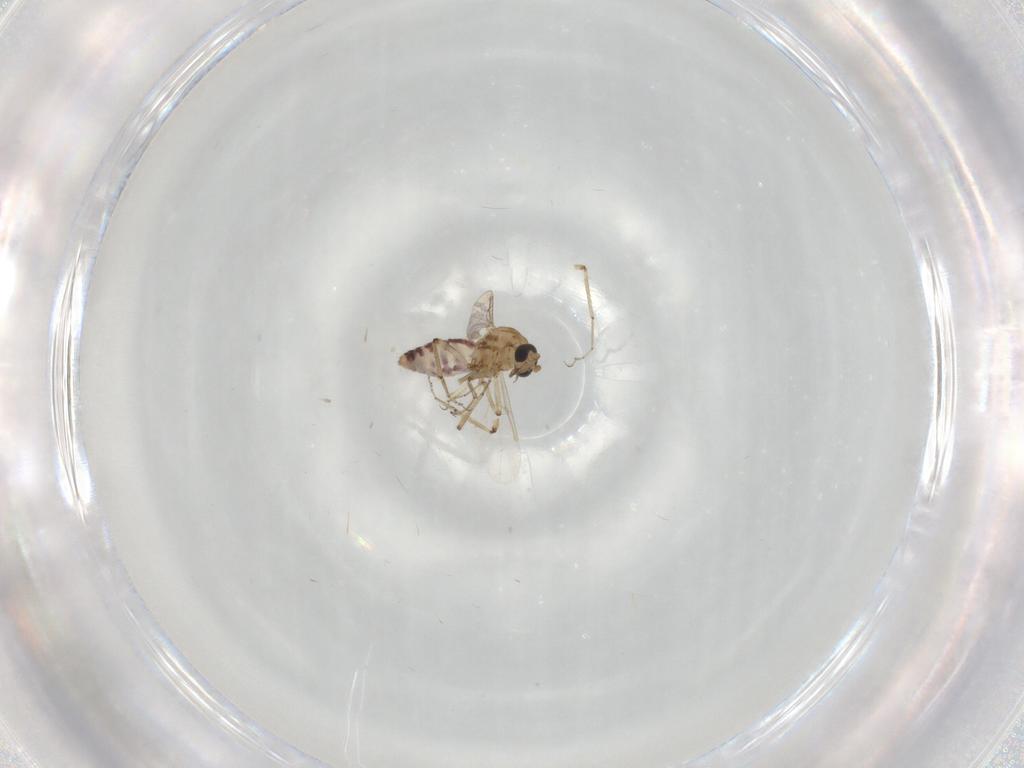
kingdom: Animalia
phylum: Arthropoda
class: Insecta
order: Diptera
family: Ceratopogonidae
